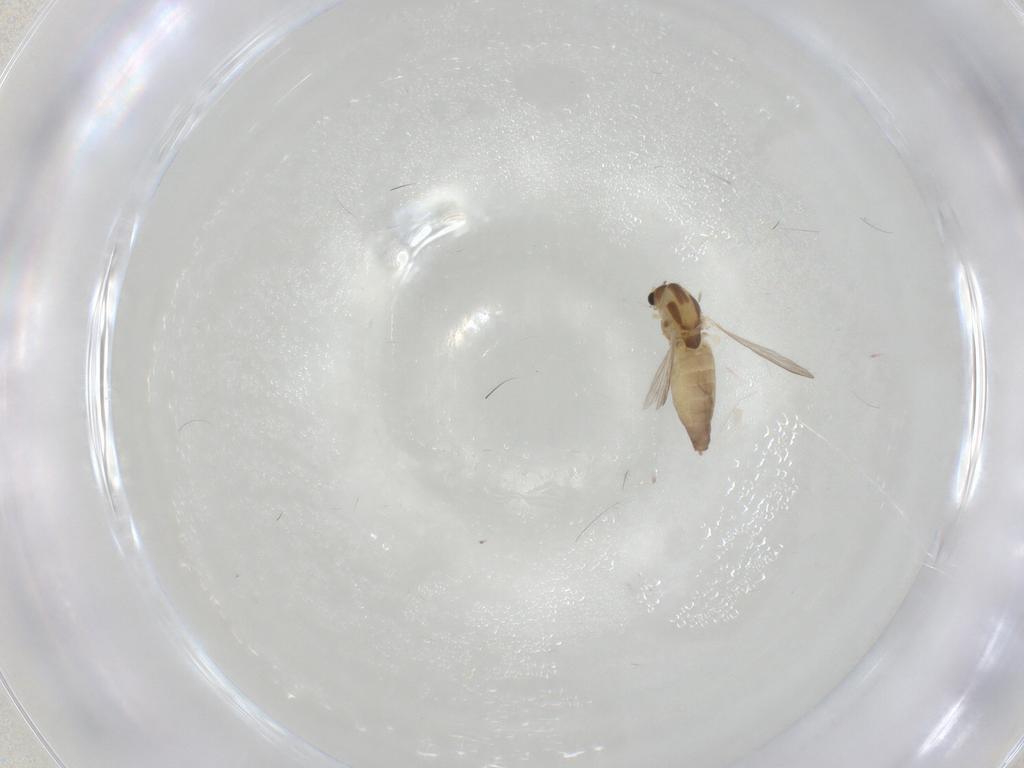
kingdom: Animalia
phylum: Arthropoda
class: Insecta
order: Diptera
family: Chironomidae
